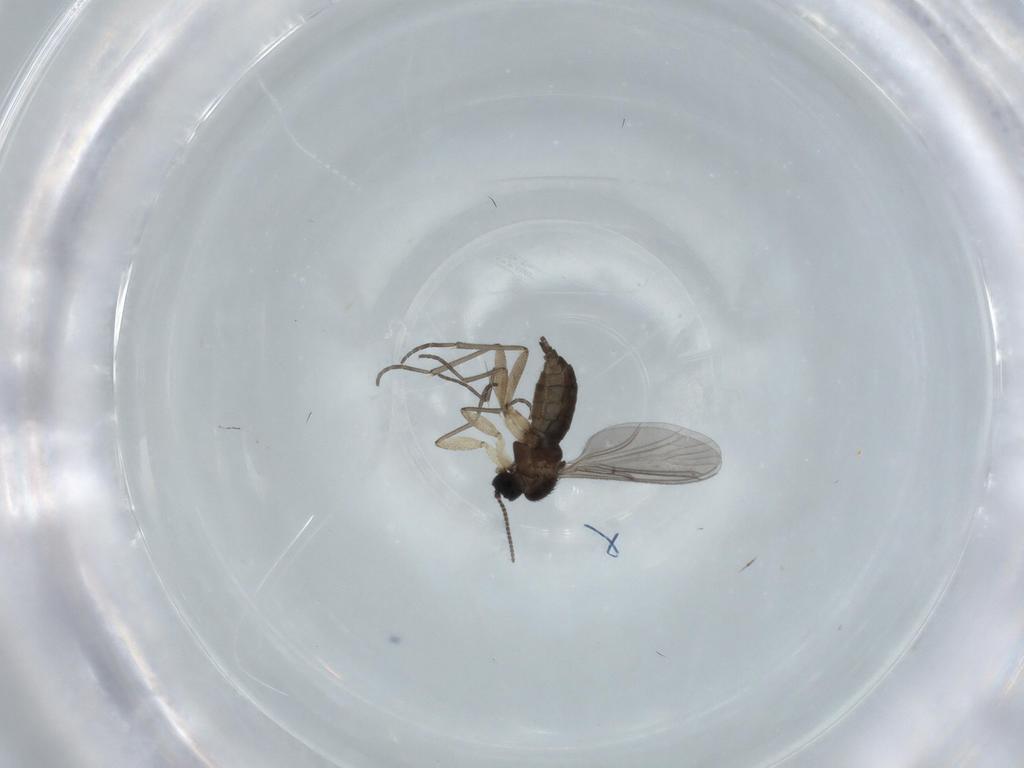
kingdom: Animalia
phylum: Arthropoda
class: Insecta
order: Diptera
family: Sciaridae
